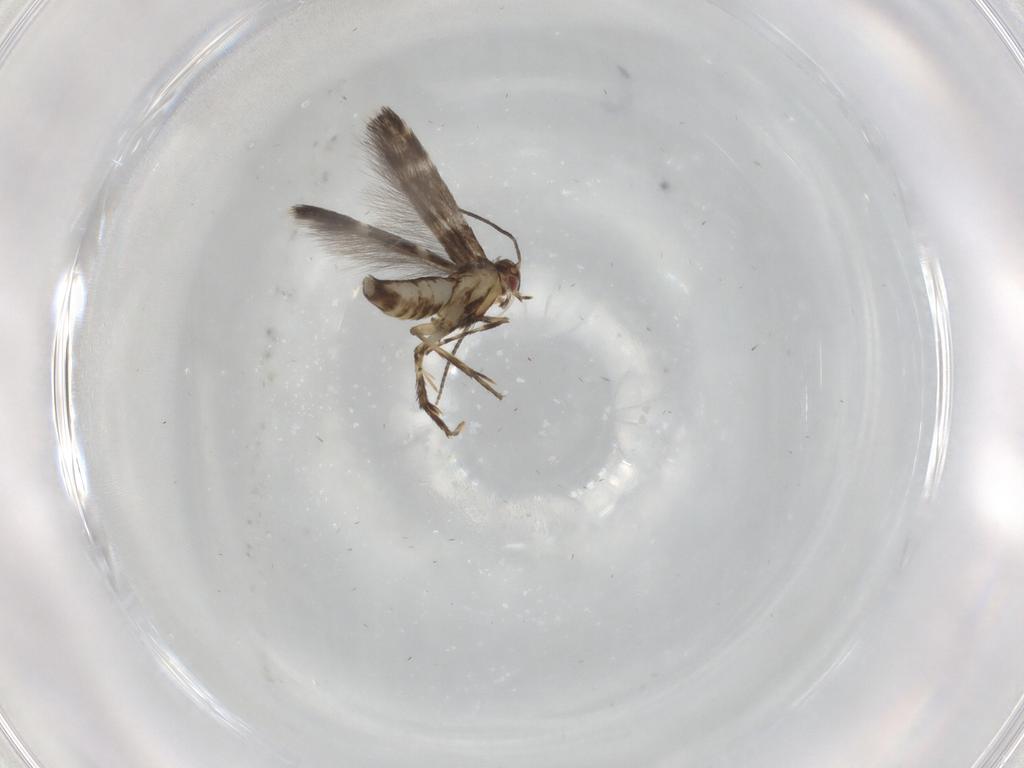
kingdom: Animalia
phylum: Arthropoda
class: Insecta
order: Lepidoptera
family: Gracillariidae
